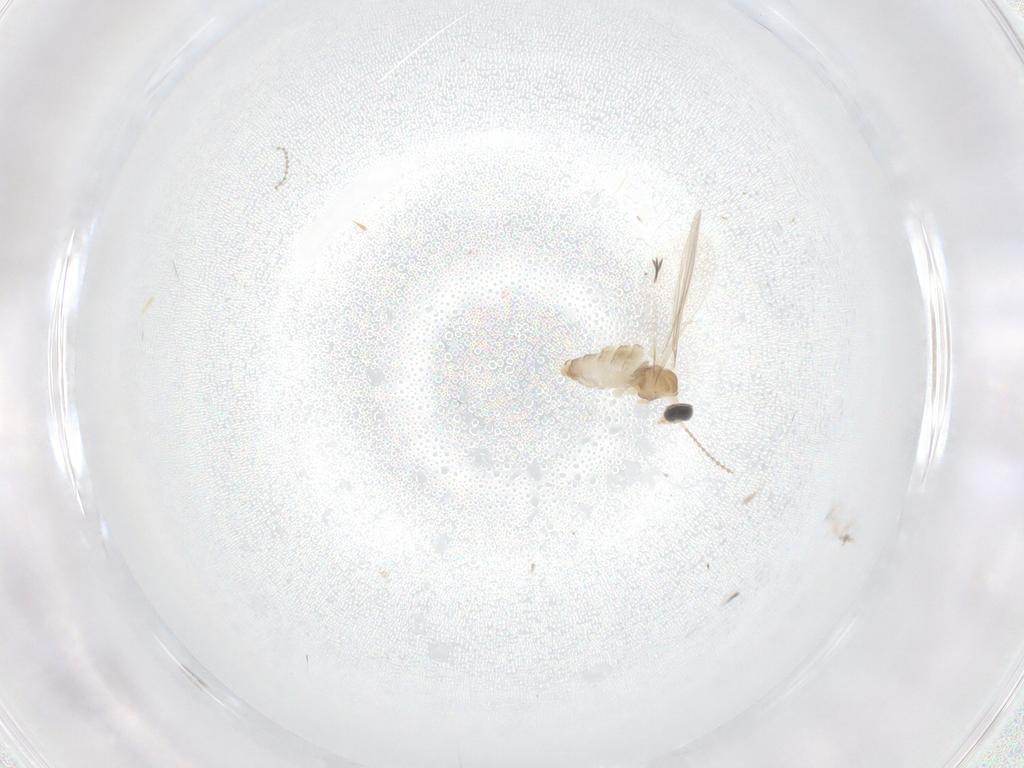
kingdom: Animalia
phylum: Arthropoda
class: Insecta
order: Diptera
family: Cecidomyiidae
